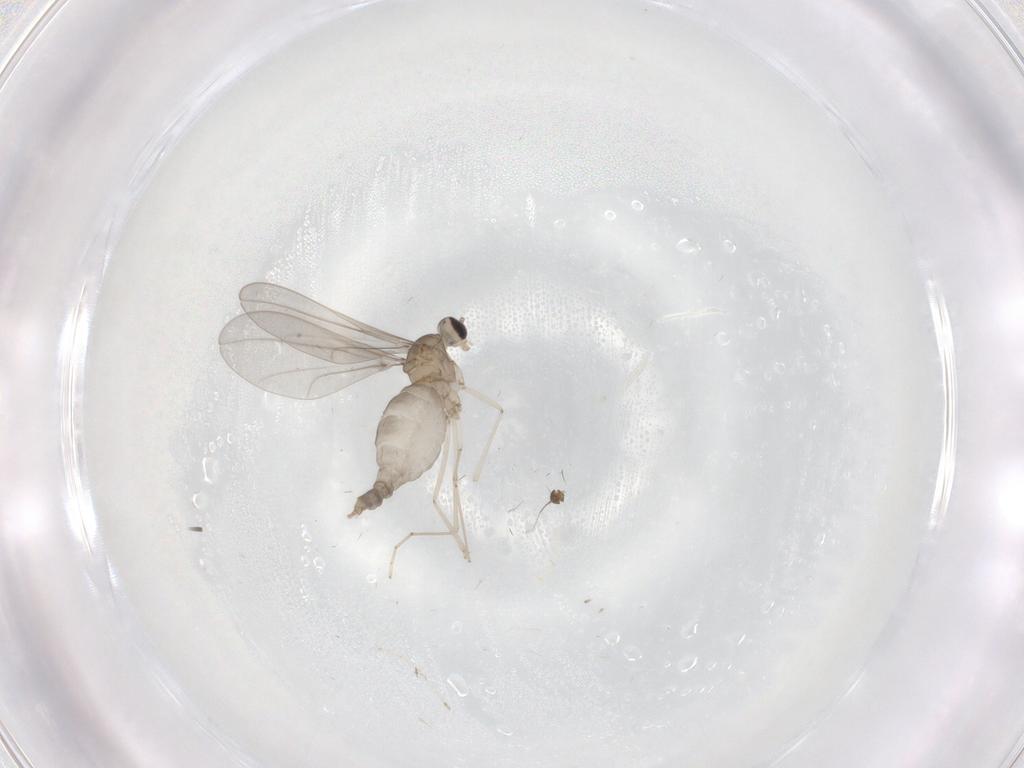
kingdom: Animalia
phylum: Arthropoda
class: Insecta
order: Diptera
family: Cecidomyiidae
